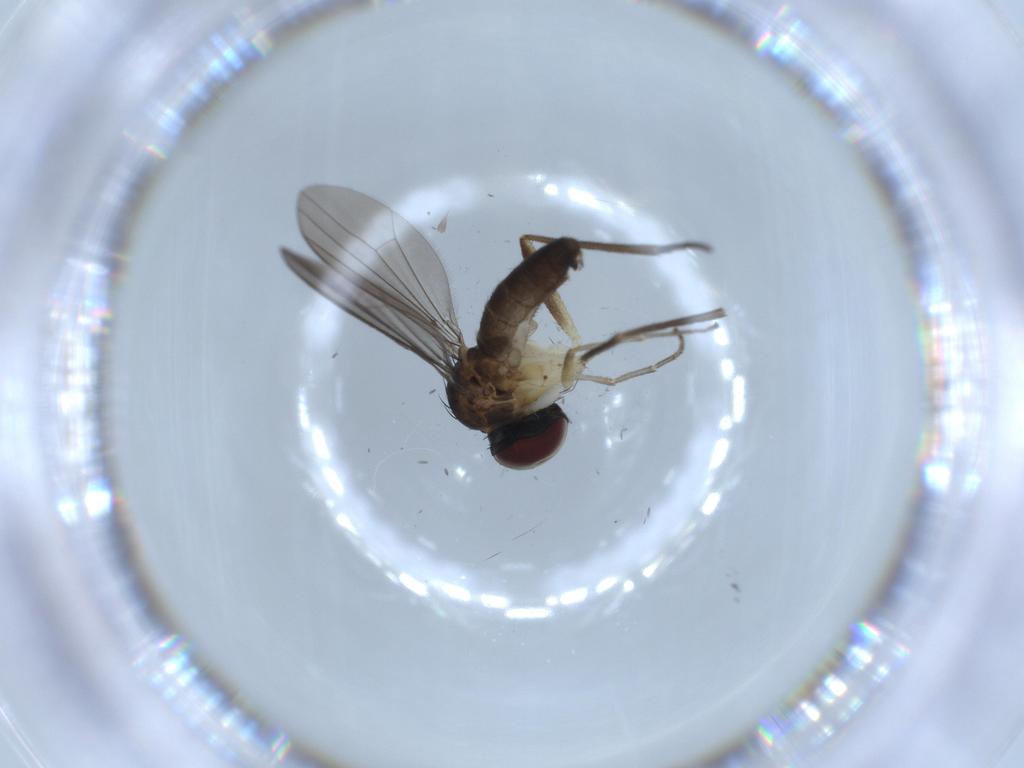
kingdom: Animalia
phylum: Arthropoda
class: Insecta
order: Diptera
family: Dolichopodidae
